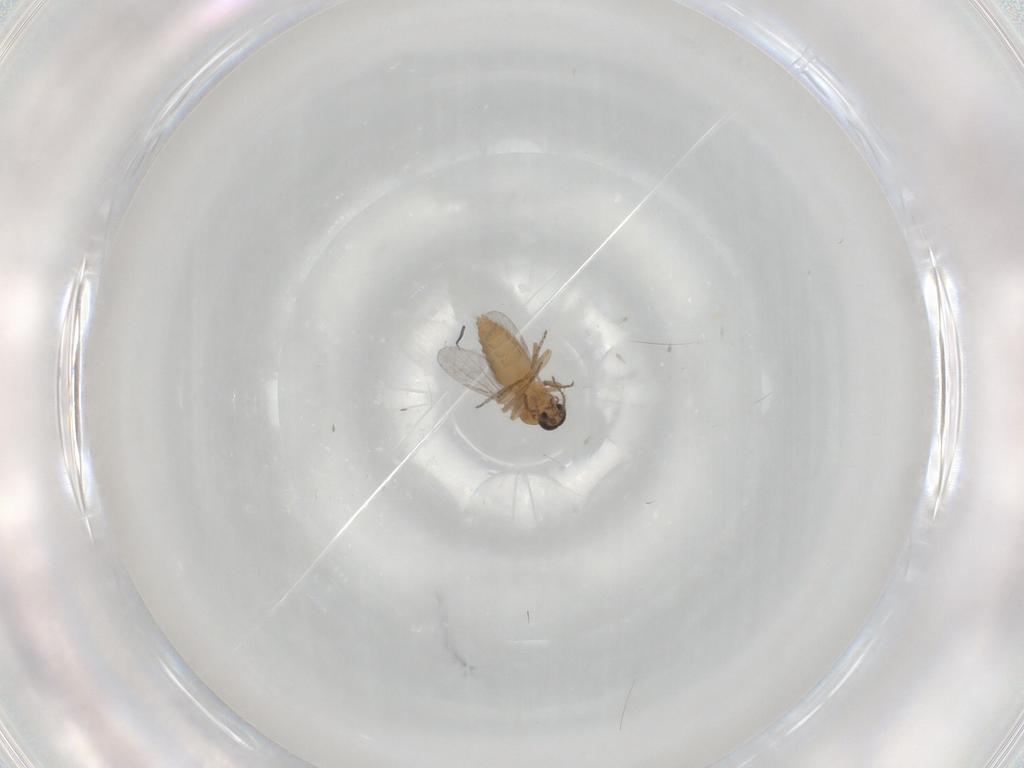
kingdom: Animalia
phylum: Arthropoda
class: Insecta
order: Diptera
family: Ceratopogonidae
